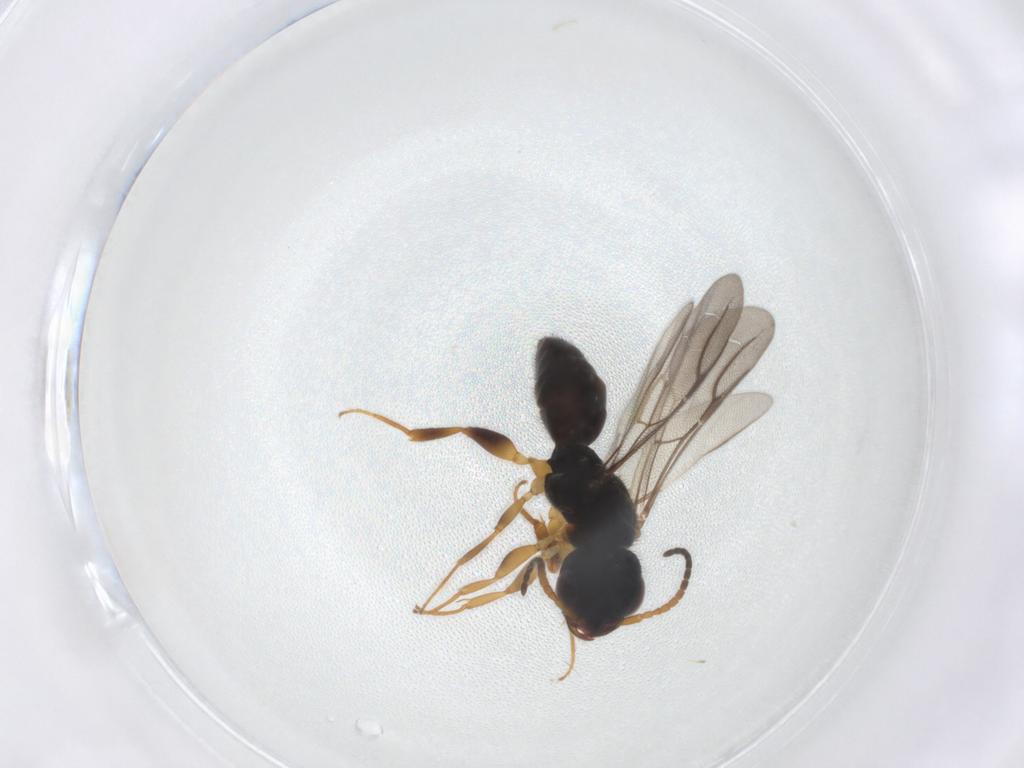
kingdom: Animalia
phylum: Arthropoda
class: Insecta
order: Hymenoptera
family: Bethylidae
